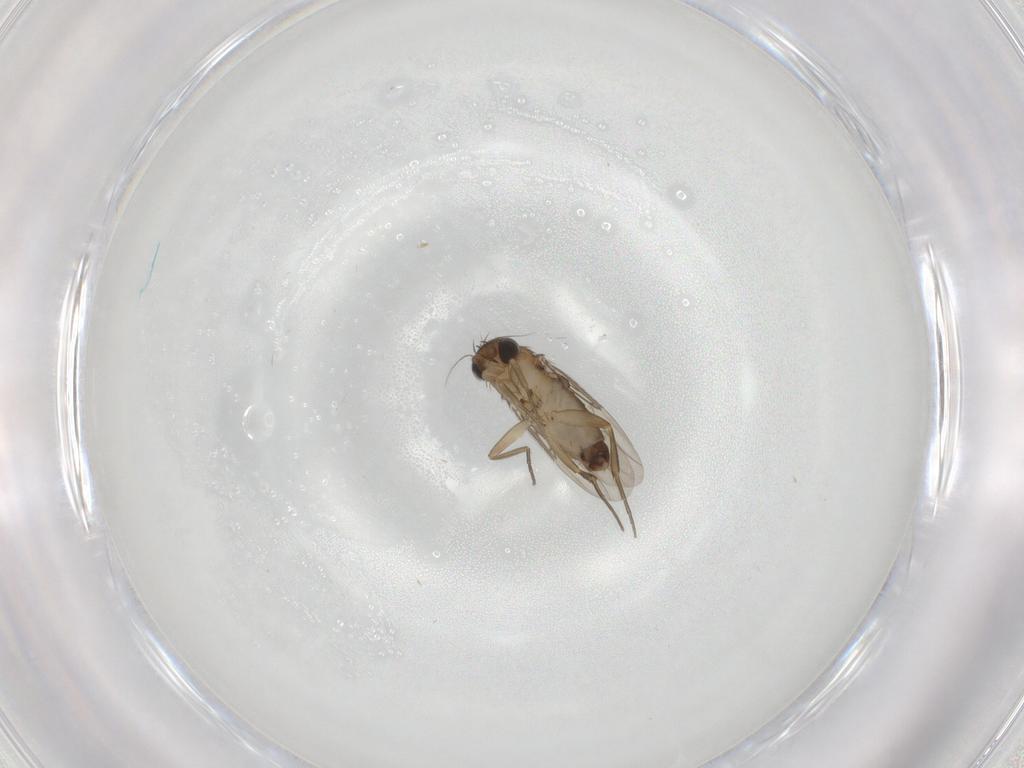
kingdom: Animalia
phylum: Arthropoda
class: Insecta
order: Diptera
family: Phoridae
